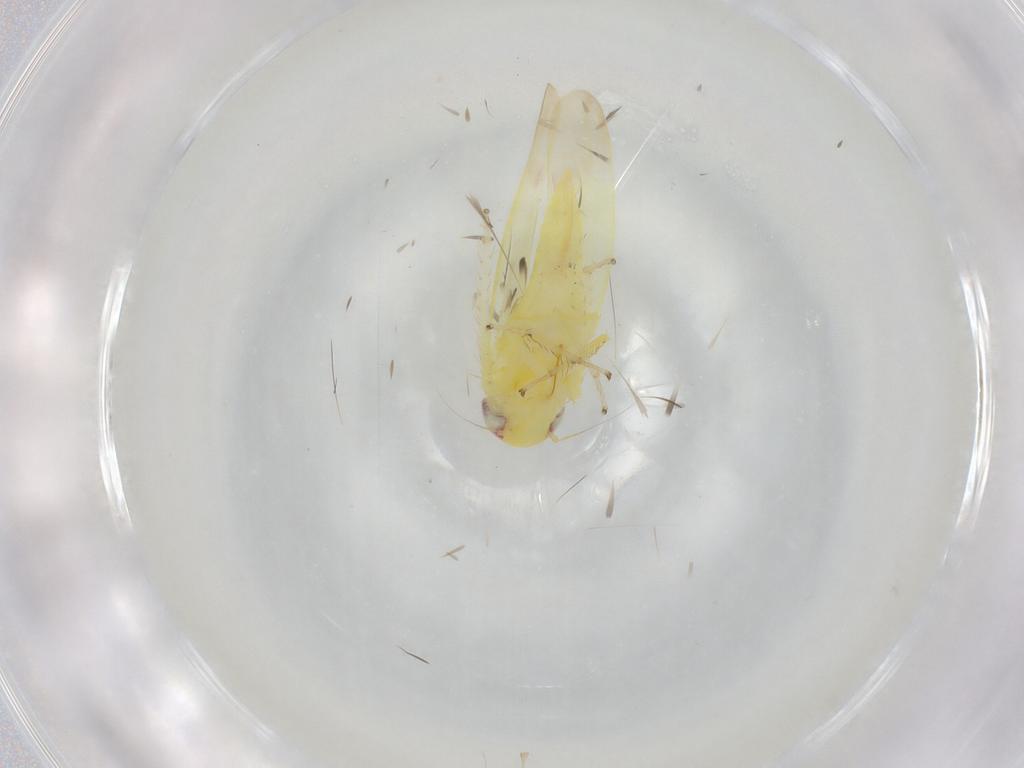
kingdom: Animalia
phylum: Arthropoda
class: Insecta
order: Hemiptera
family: Cicadellidae
